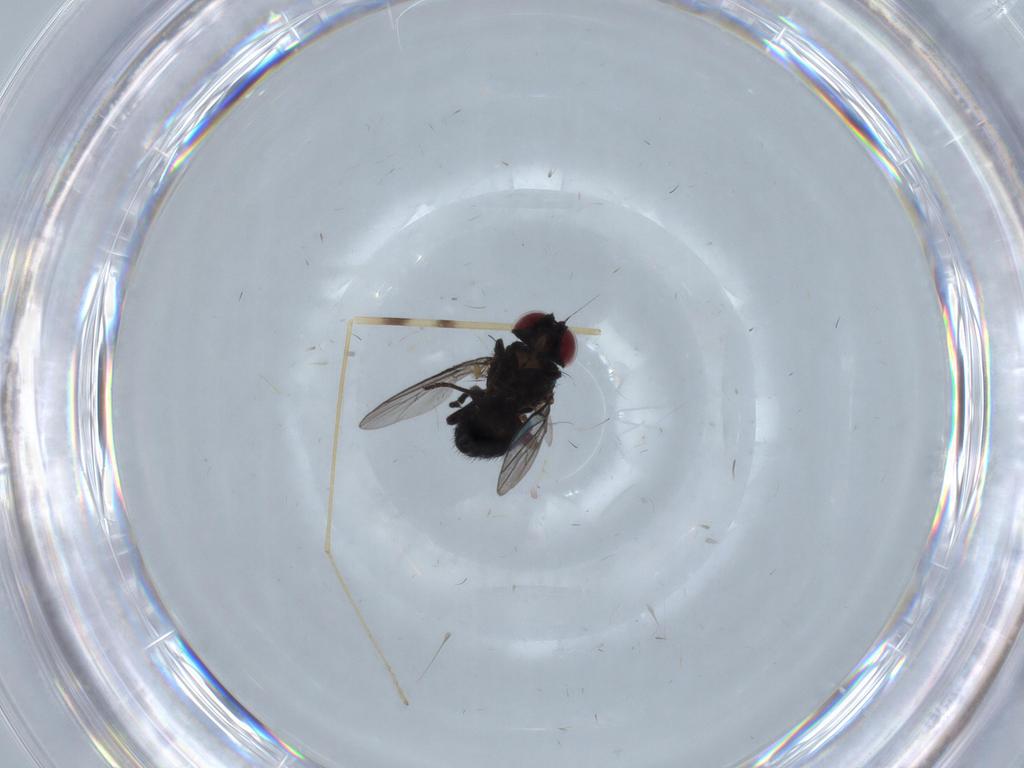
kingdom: Animalia
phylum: Arthropoda
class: Insecta
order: Diptera
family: Agromyzidae
